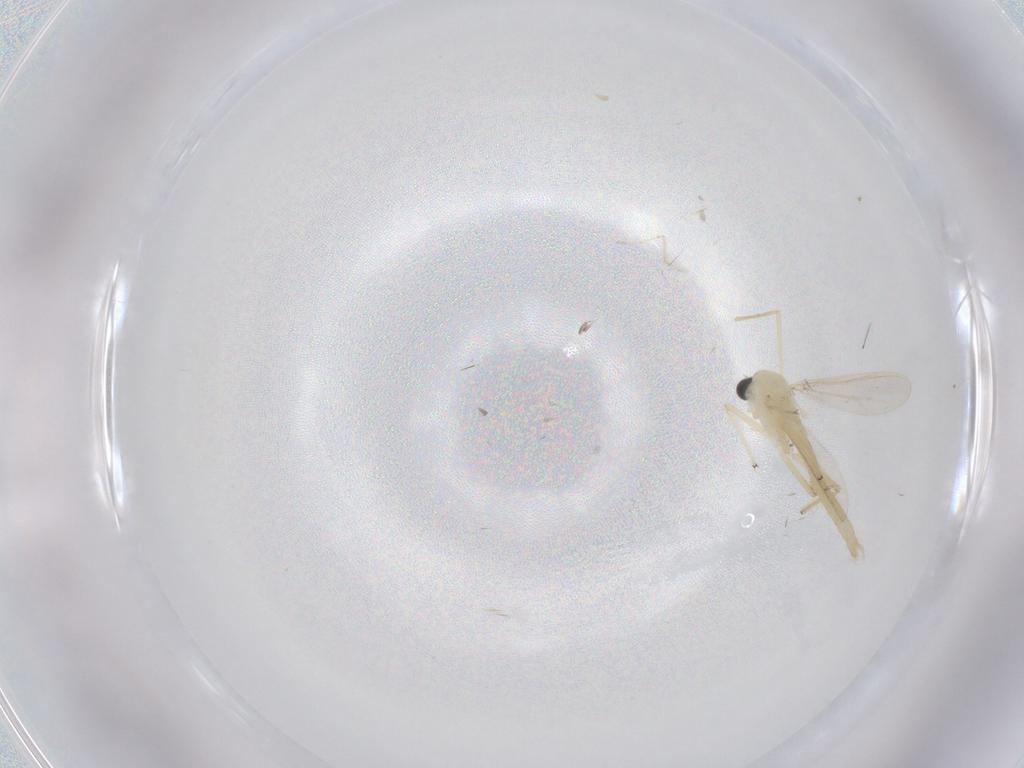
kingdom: Animalia
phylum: Arthropoda
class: Insecta
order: Diptera
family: Chironomidae
